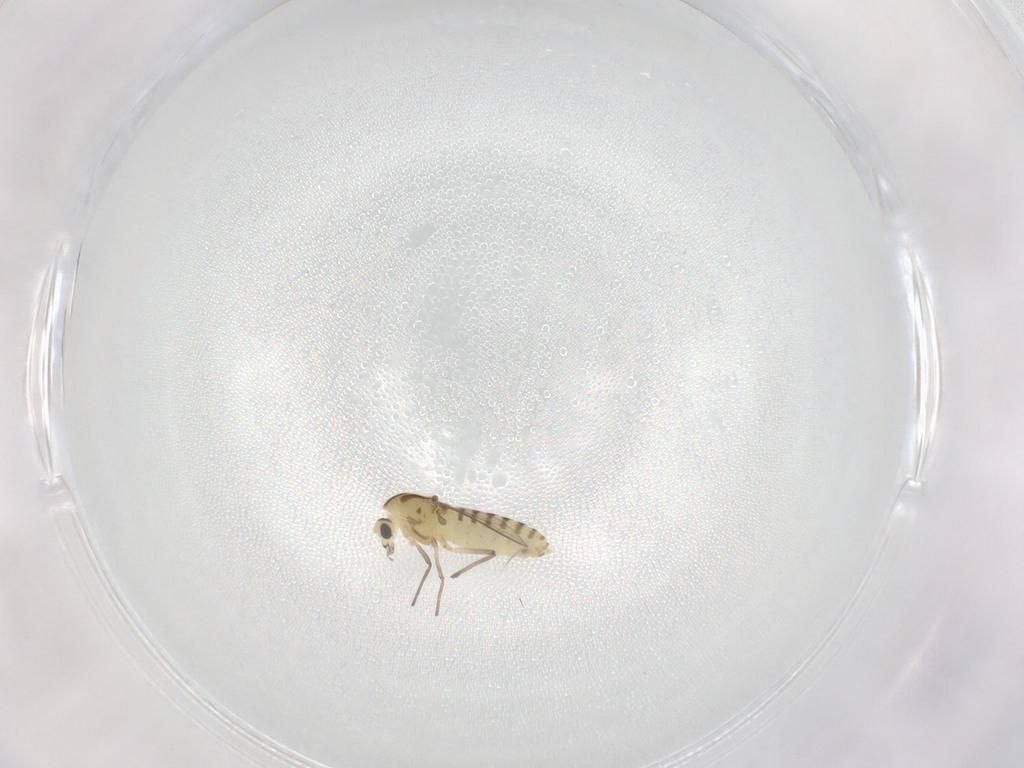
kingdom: Animalia
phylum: Arthropoda
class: Insecta
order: Diptera
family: Chironomidae
